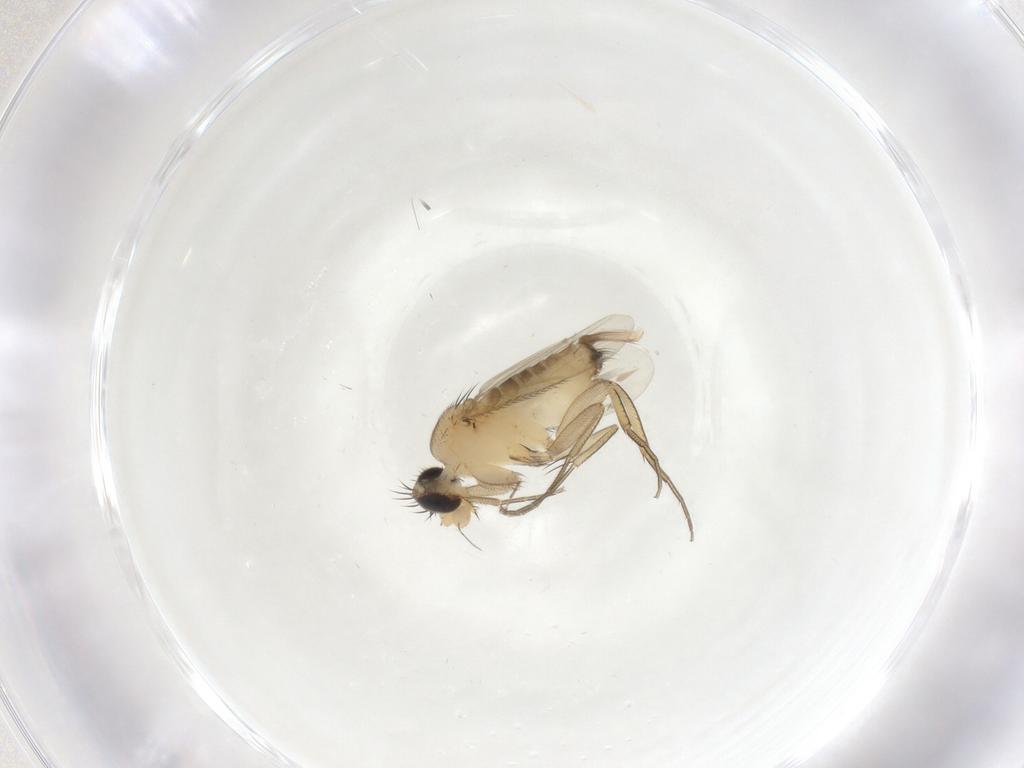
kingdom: Animalia
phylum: Arthropoda
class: Insecta
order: Diptera
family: Phoridae
